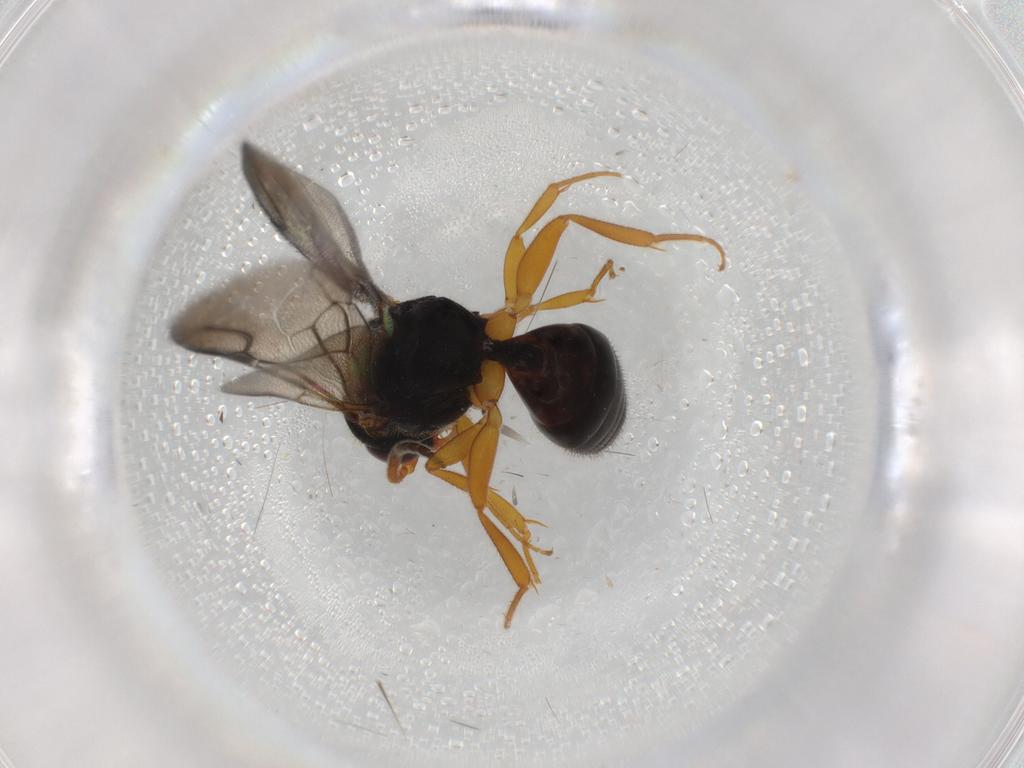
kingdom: Animalia
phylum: Arthropoda
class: Insecta
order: Hymenoptera
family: Bethylidae
